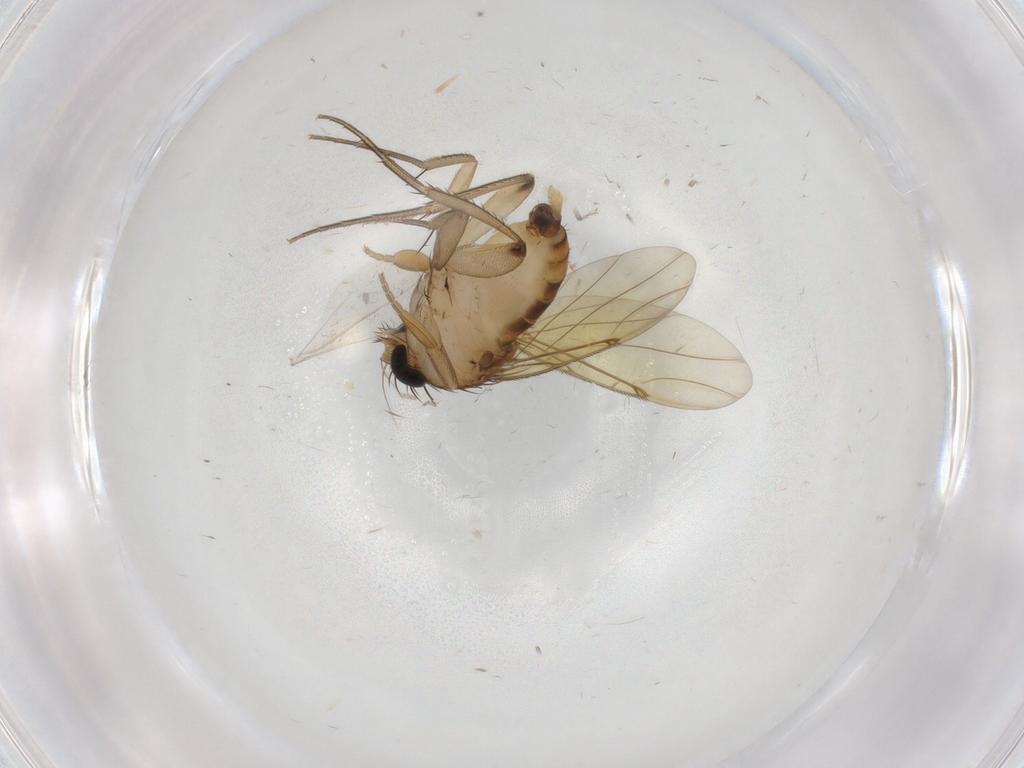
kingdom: Animalia
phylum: Arthropoda
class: Insecta
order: Diptera
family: Phoridae
